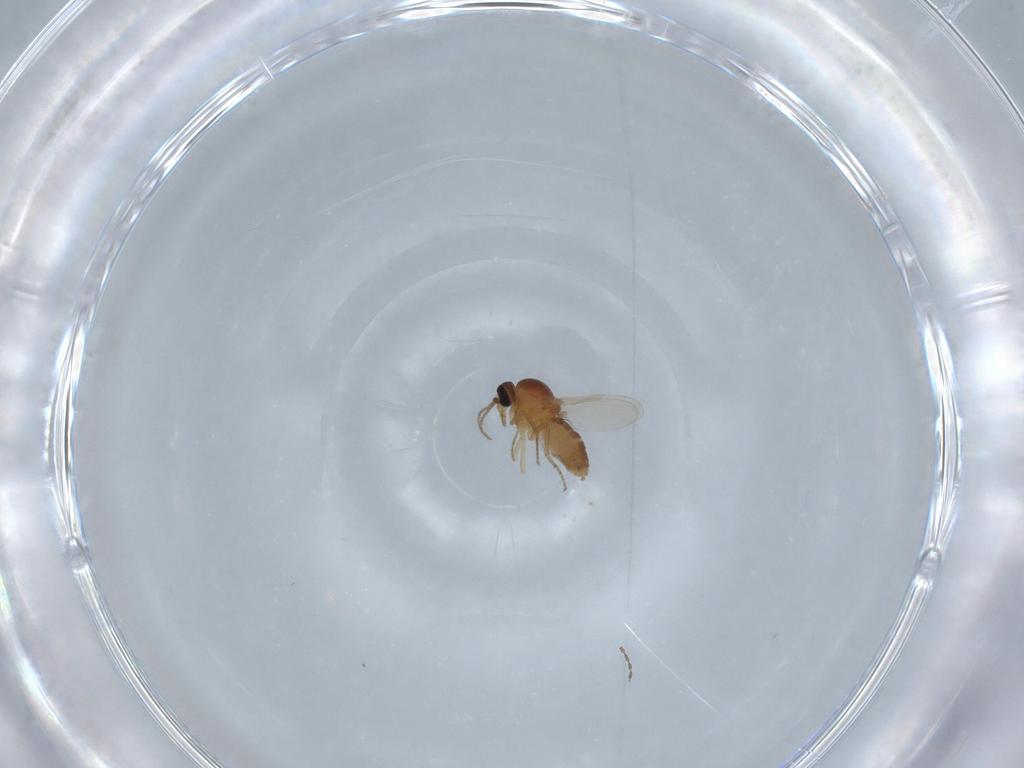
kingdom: Animalia
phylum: Arthropoda
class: Insecta
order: Diptera
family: Ceratopogonidae
